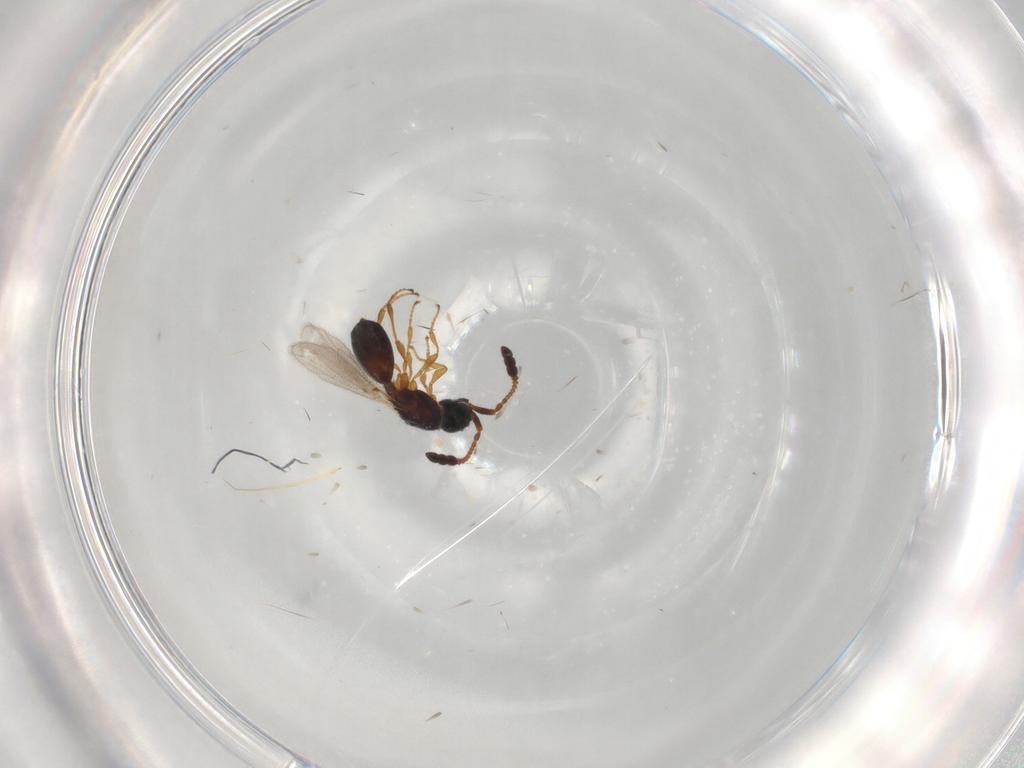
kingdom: Animalia
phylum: Arthropoda
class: Insecta
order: Hymenoptera
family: Diapriidae
